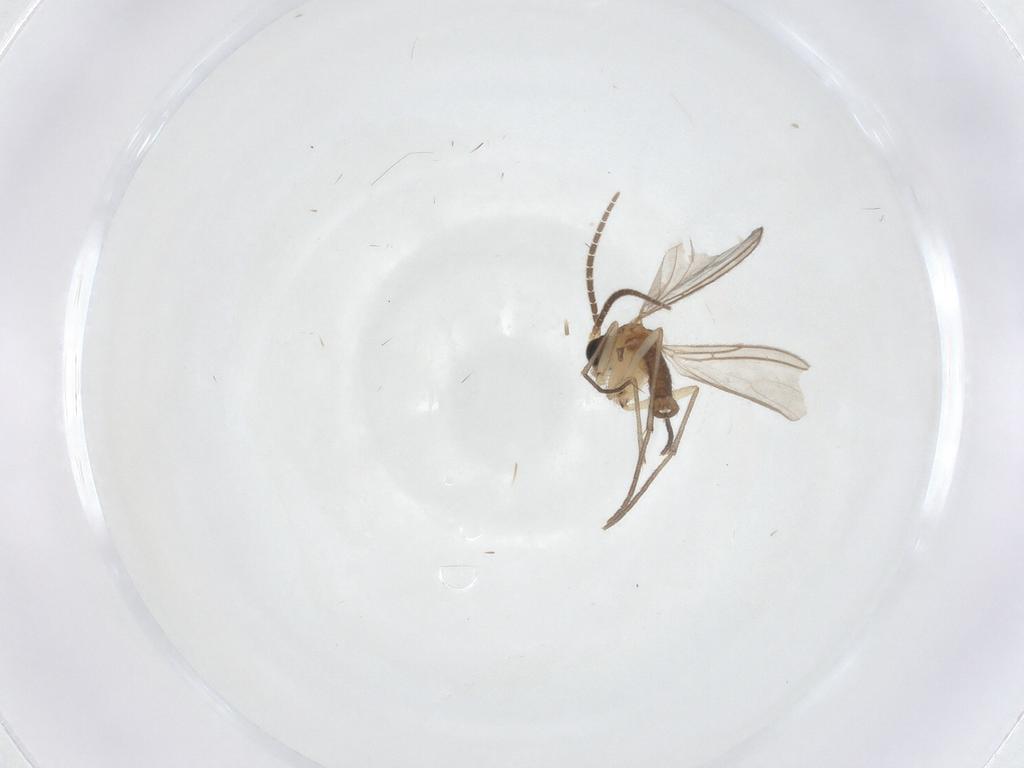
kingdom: Animalia
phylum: Arthropoda
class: Insecta
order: Diptera
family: Sciaridae
